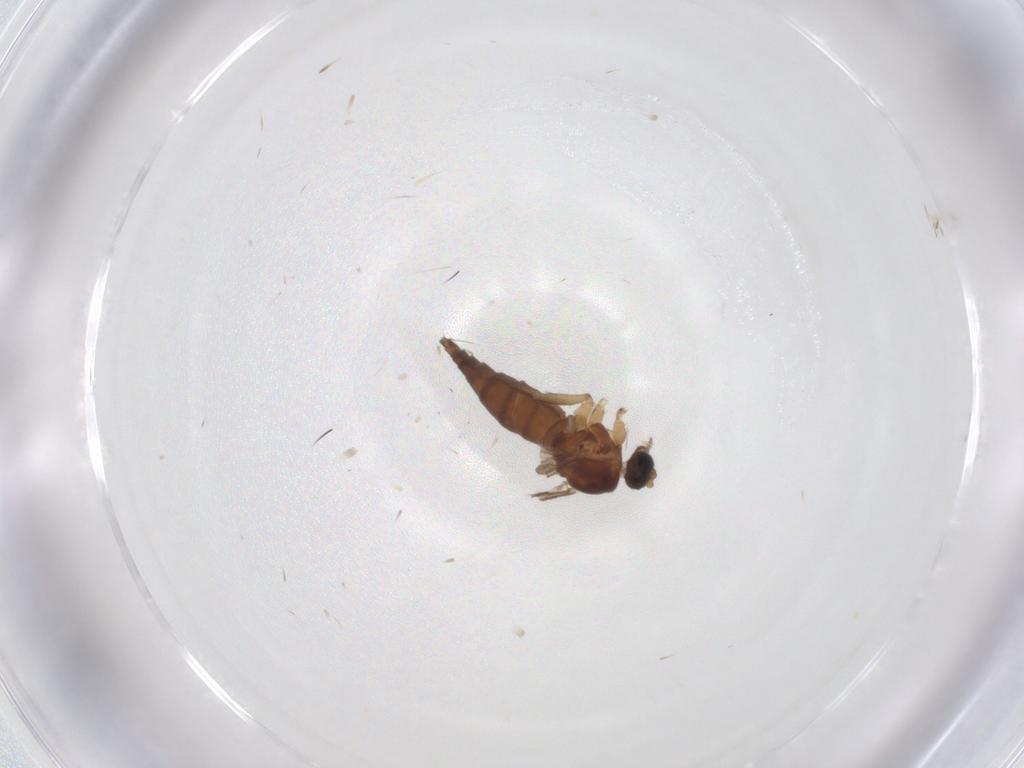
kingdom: Animalia
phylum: Arthropoda
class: Insecta
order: Diptera
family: Sciaridae
